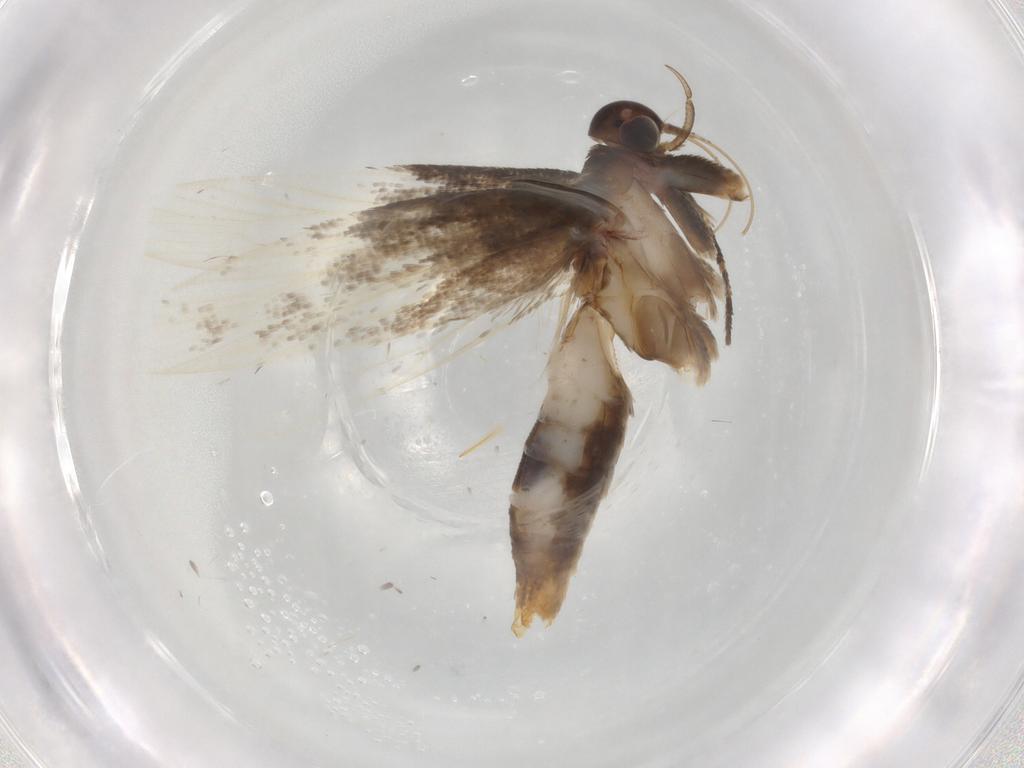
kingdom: Animalia
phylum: Arthropoda
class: Insecta
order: Lepidoptera
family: Gelechiidae
